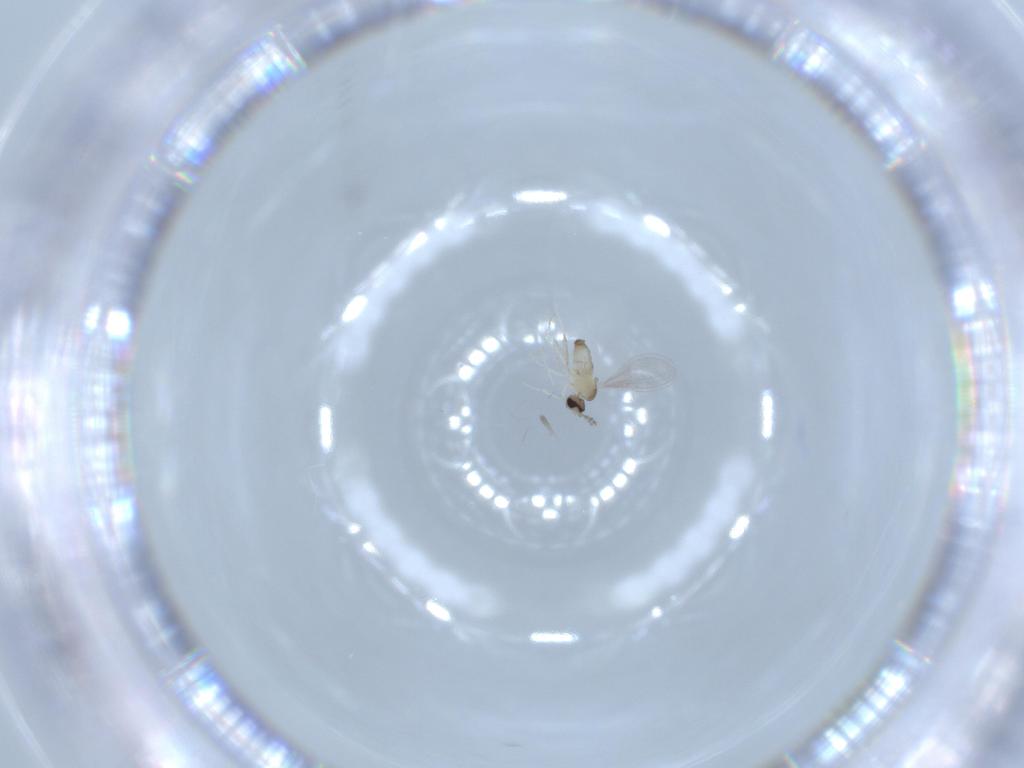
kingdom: Animalia
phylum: Arthropoda
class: Insecta
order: Diptera
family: Cecidomyiidae
